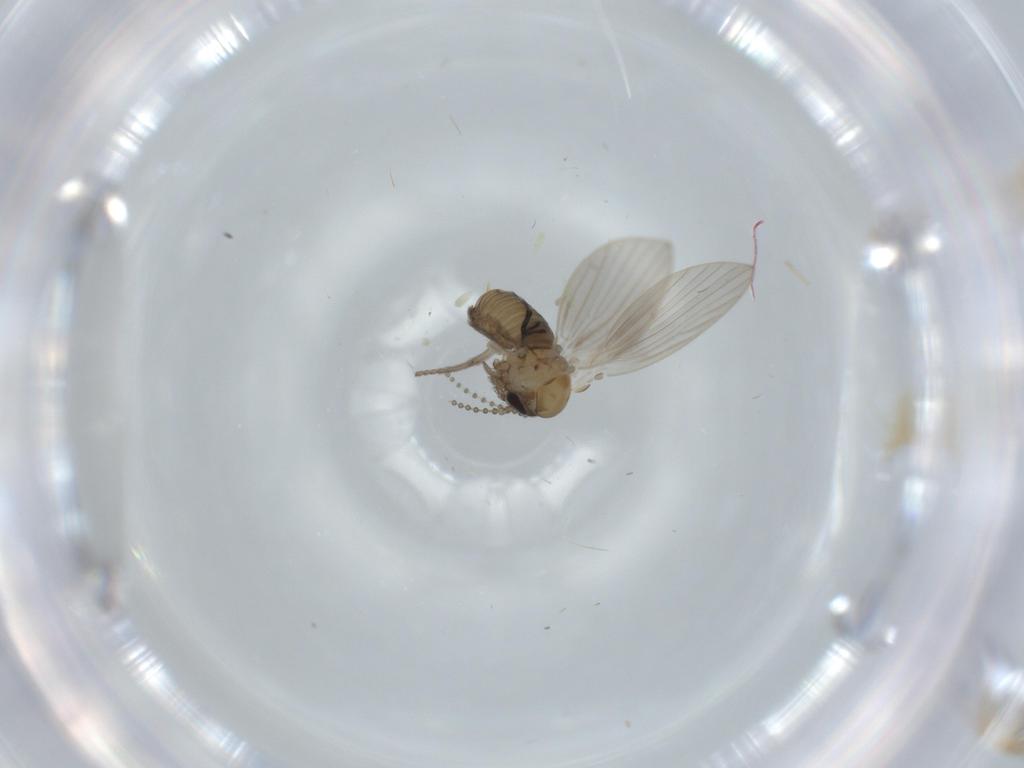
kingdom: Animalia
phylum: Arthropoda
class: Insecta
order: Diptera
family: Psychodidae
